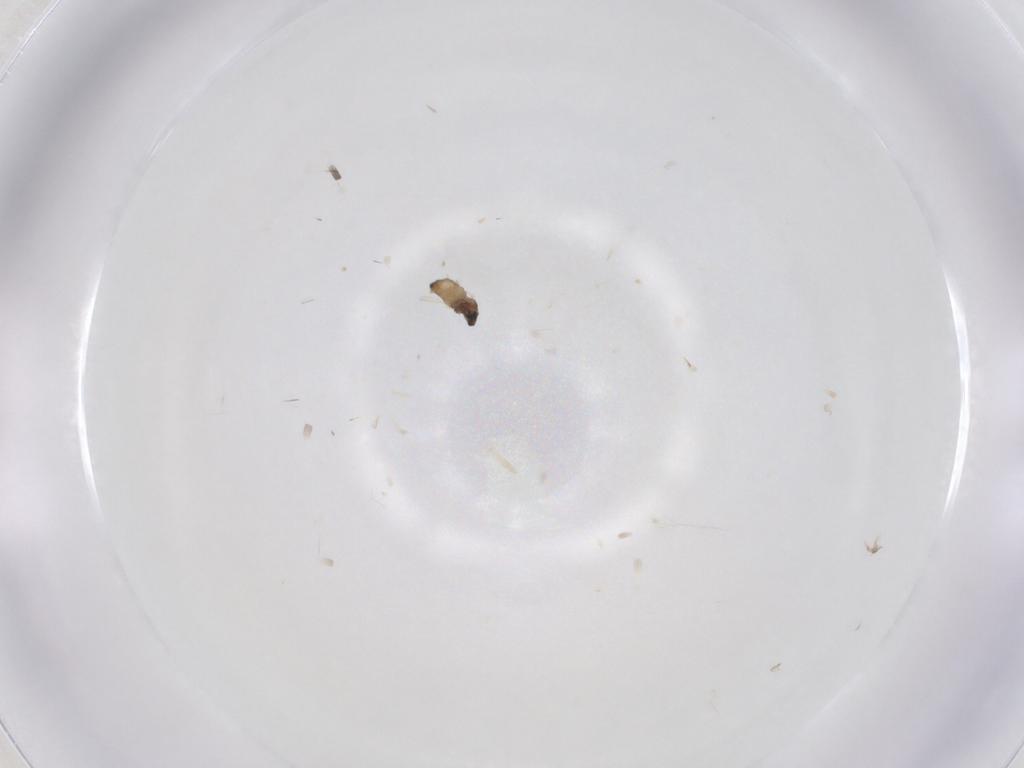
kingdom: Animalia
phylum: Arthropoda
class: Insecta
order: Diptera
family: Cecidomyiidae
